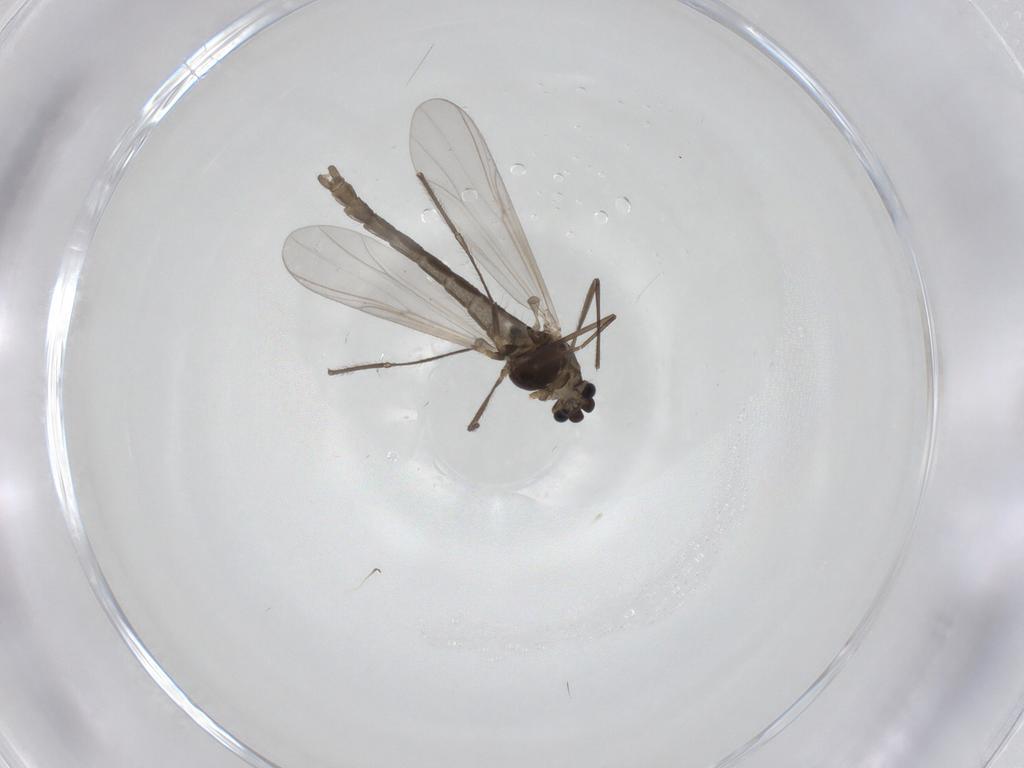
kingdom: Animalia
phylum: Arthropoda
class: Insecta
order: Diptera
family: Chironomidae
